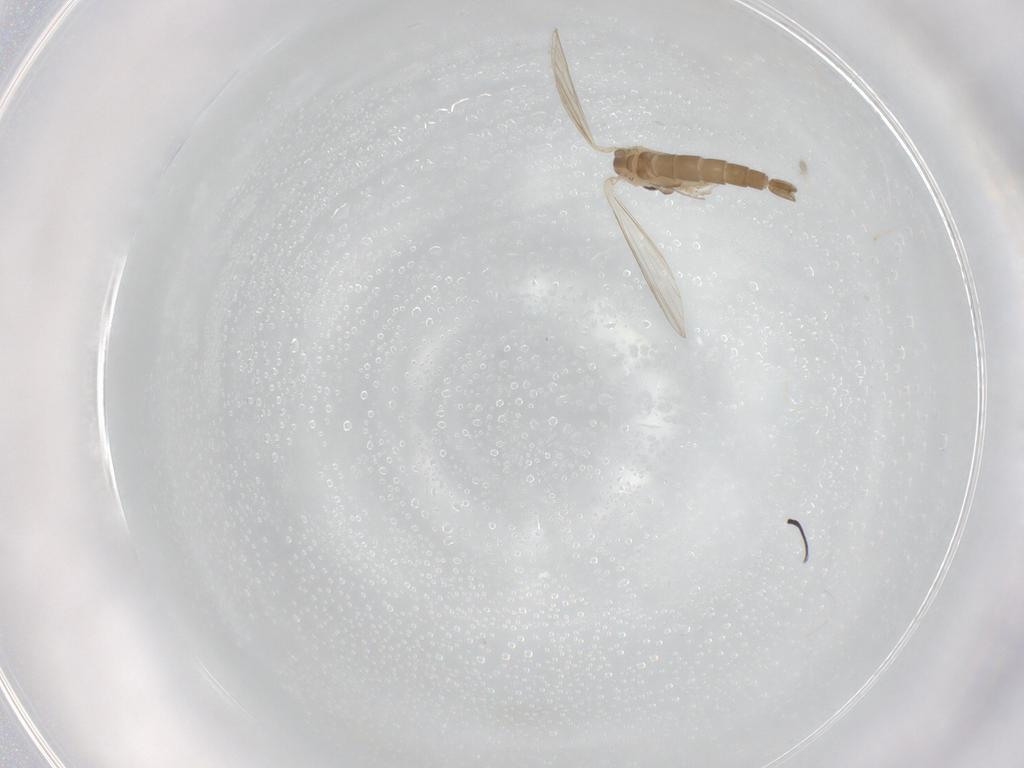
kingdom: Animalia
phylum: Arthropoda
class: Insecta
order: Diptera
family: Psychodidae
